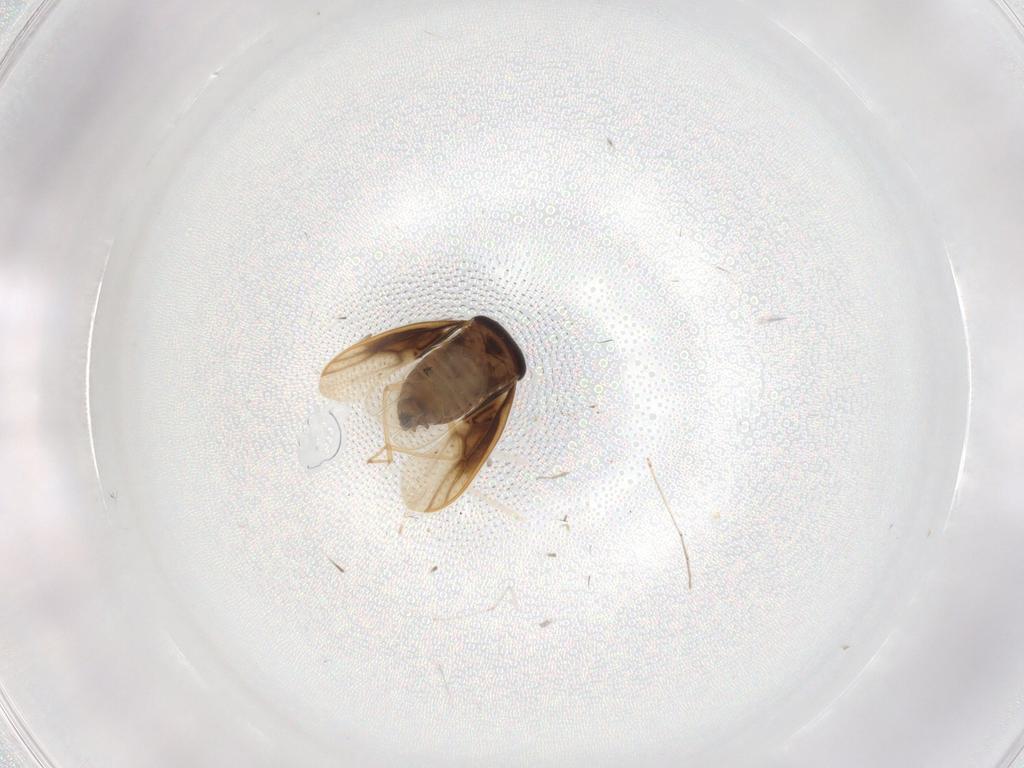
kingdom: Animalia
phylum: Arthropoda
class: Insecta
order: Hemiptera
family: Schizopteridae
